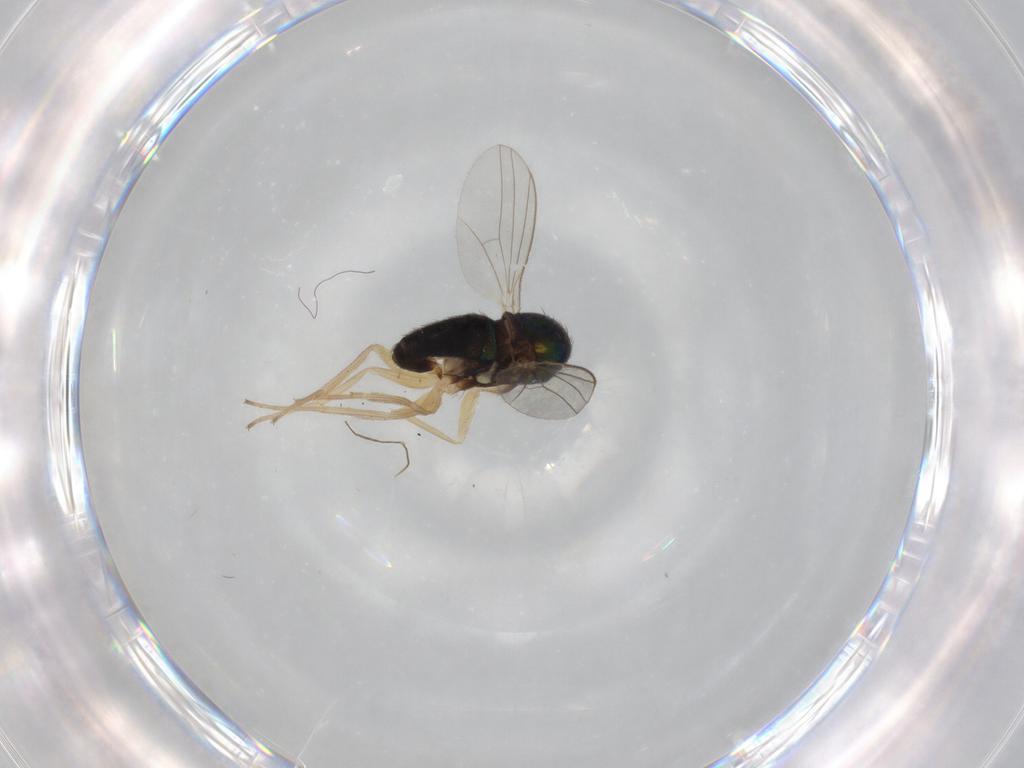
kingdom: Animalia
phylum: Arthropoda
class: Insecta
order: Diptera
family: Dolichopodidae
